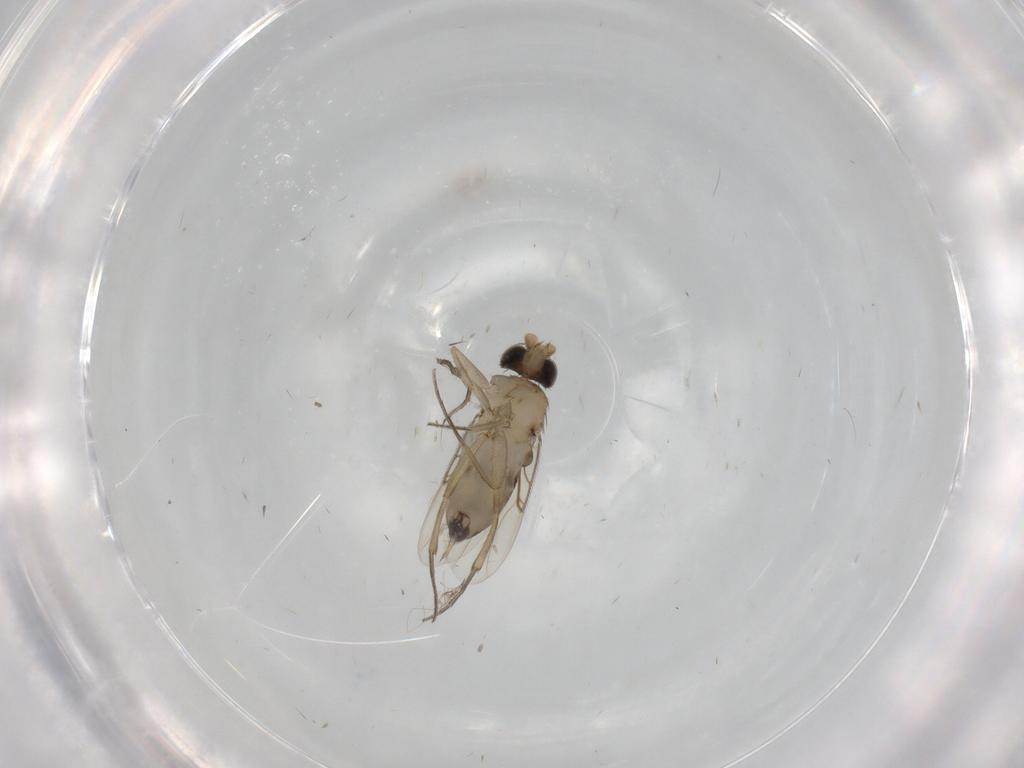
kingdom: Animalia
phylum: Arthropoda
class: Insecta
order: Diptera
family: Phoridae
